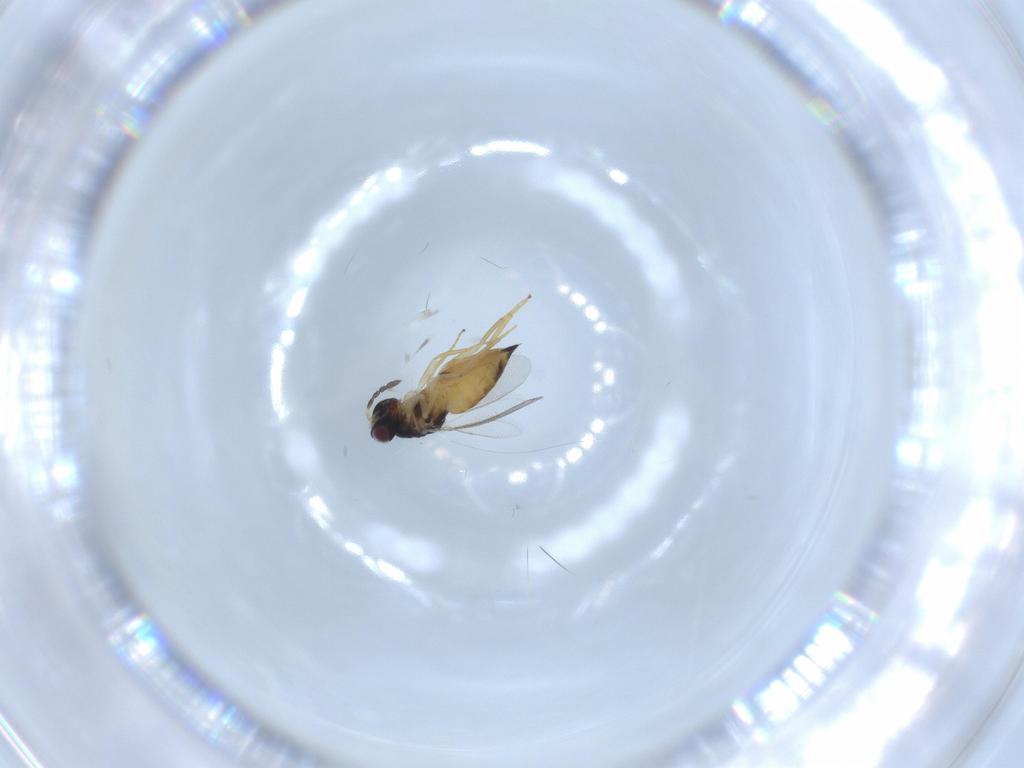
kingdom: Animalia
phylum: Arthropoda
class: Insecta
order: Hymenoptera
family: Eulophidae
